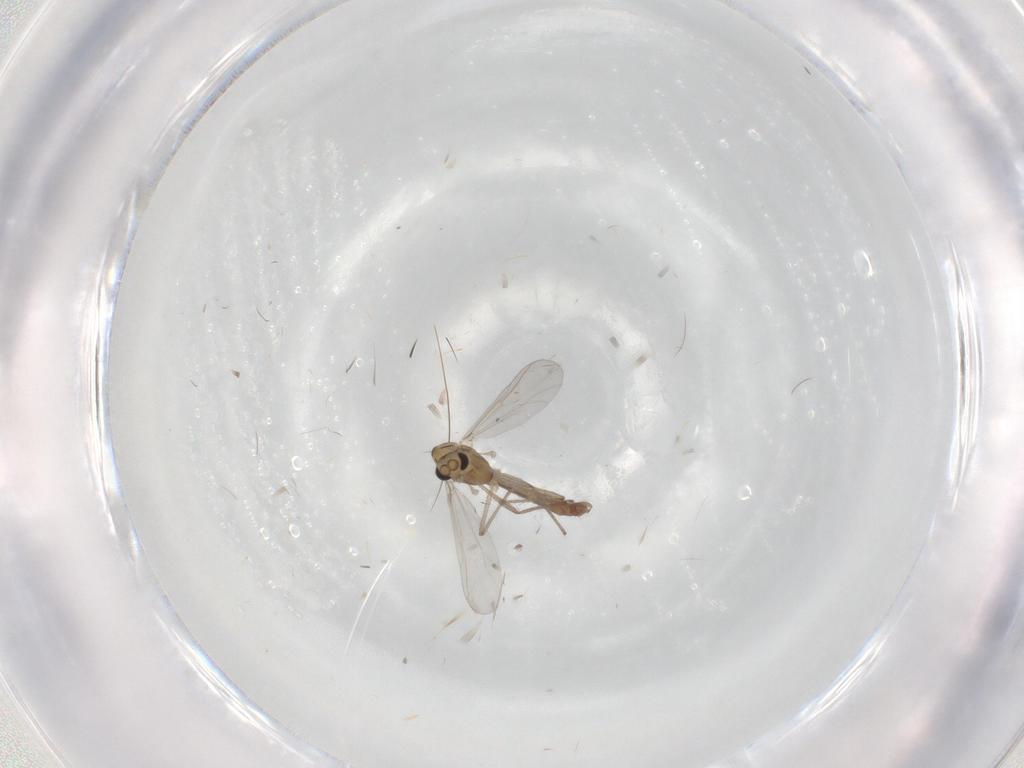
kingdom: Animalia
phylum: Arthropoda
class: Insecta
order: Diptera
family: Chironomidae
